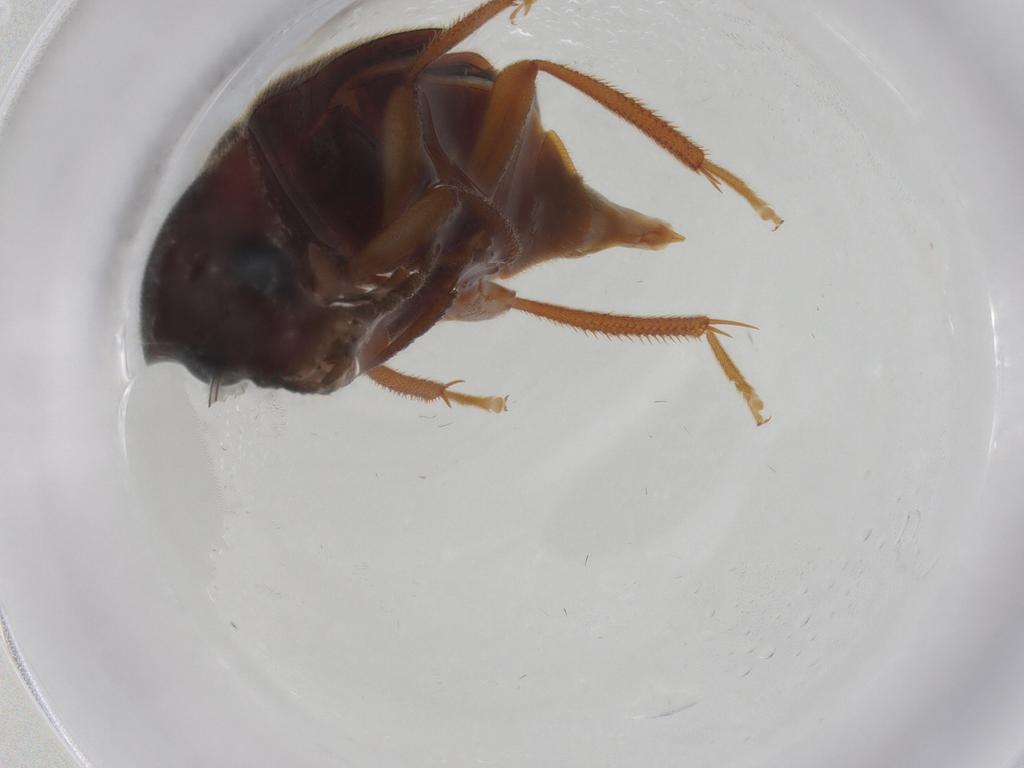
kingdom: Animalia
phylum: Arthropoda
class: Insecta
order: Coleoptera
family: Ptilodactylidae
